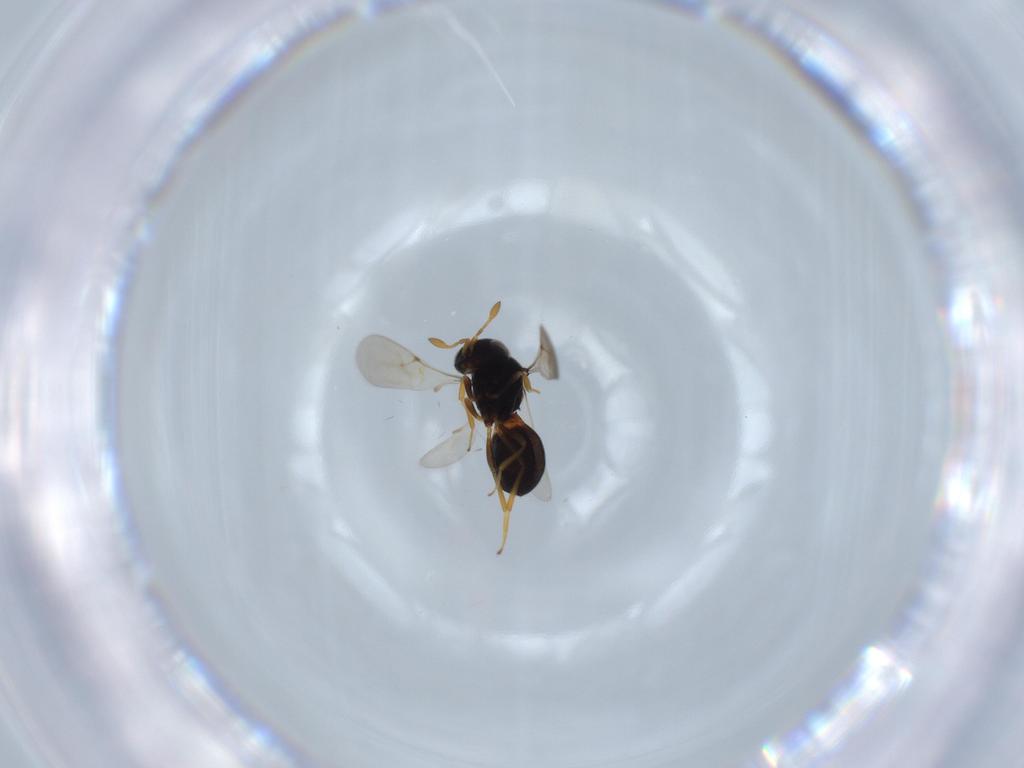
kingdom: Animalia
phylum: Arthropoda
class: Insecta
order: Hymenoptera
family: Scelionidae
